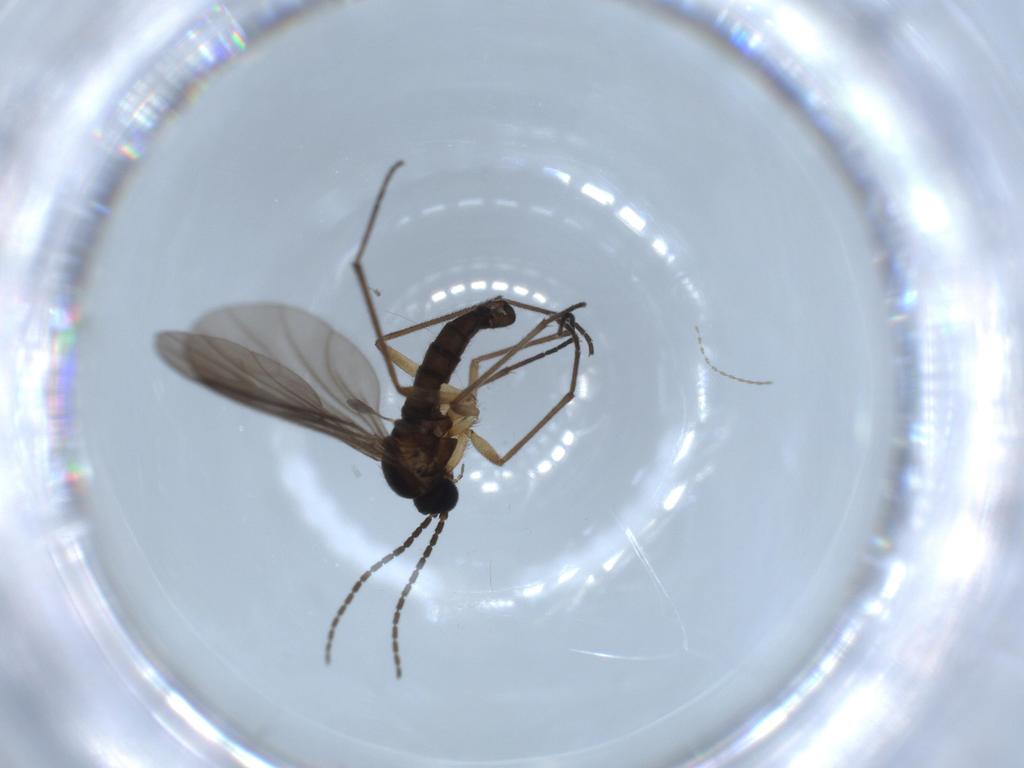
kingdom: Animalia
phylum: Arthropoda
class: Insecta
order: Diptera
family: Sciaridae
